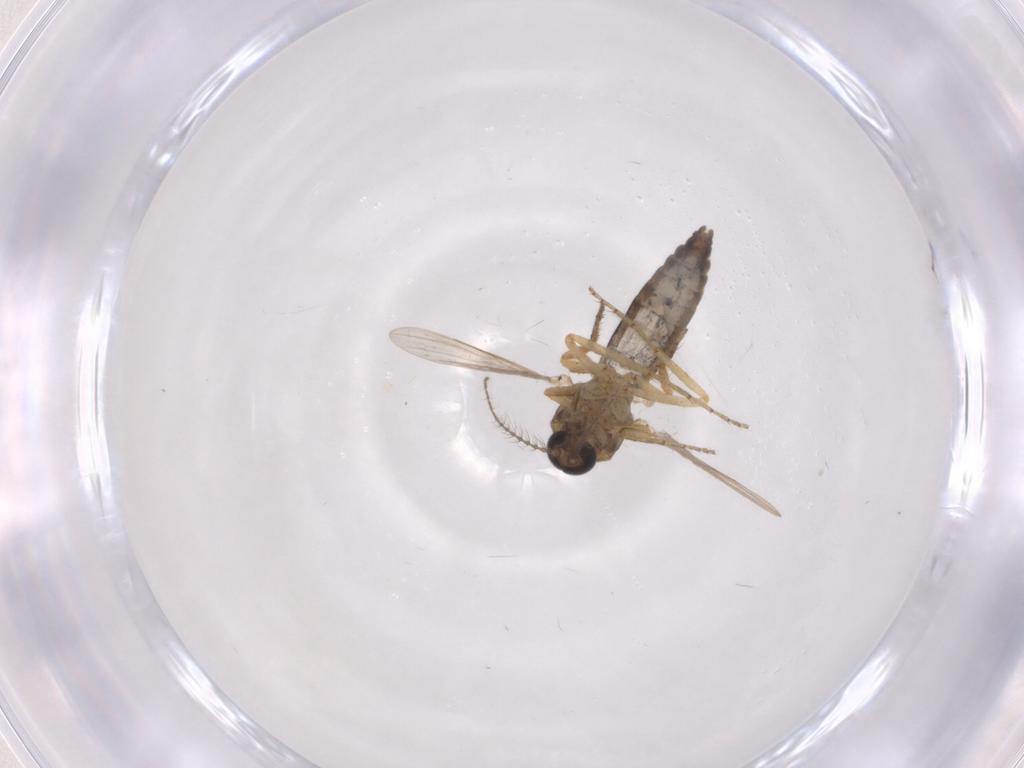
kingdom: Animalia
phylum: Arthropoda
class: Insecta
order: Diptera
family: Ceratopogonidae
